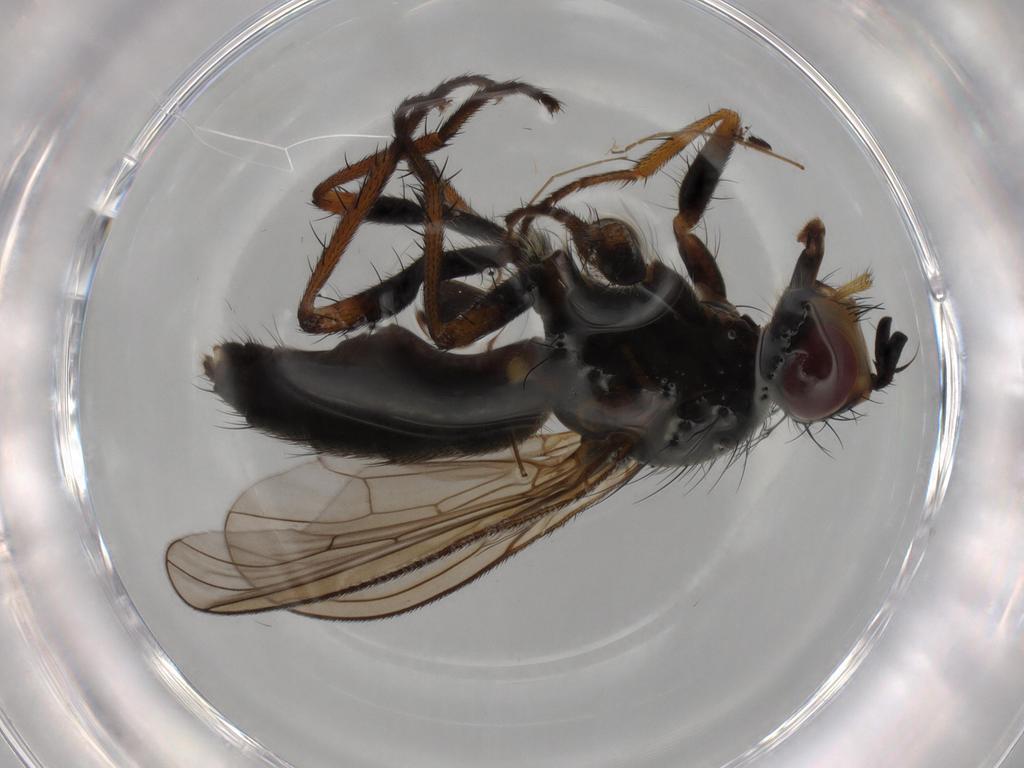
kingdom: Animalia
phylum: Arthropoda
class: Insecta
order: Diptera
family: Scathophagidae
